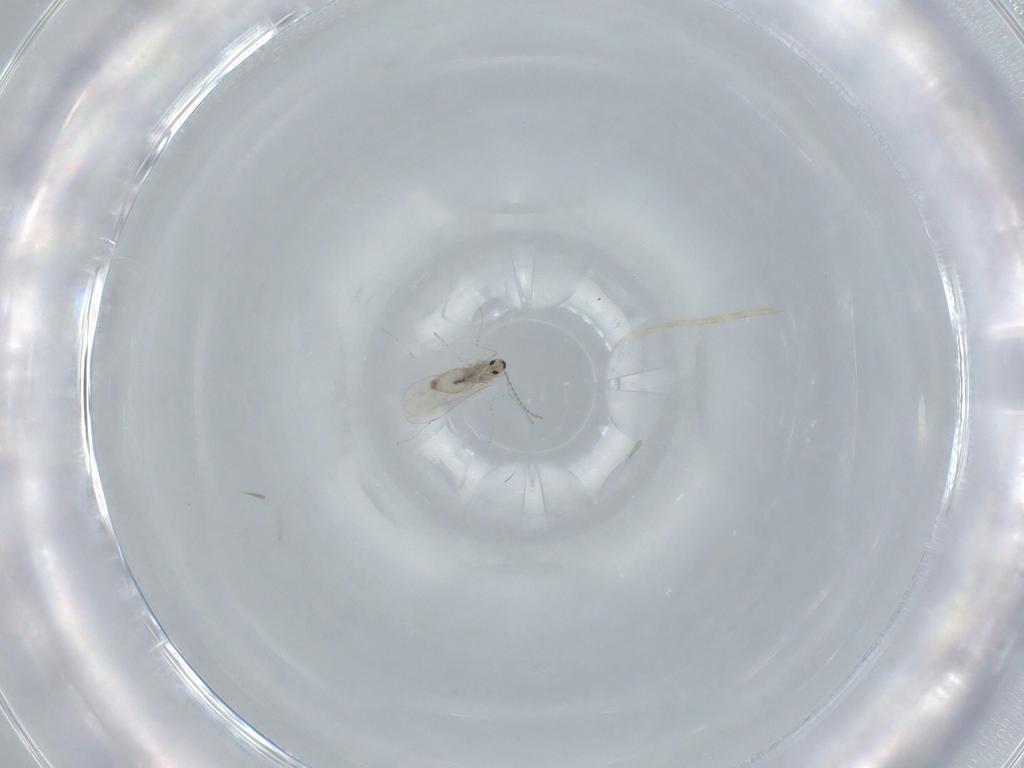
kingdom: Animalia
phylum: Arthropoda
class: Insecta
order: Diptera
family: Cecidomyiidae
